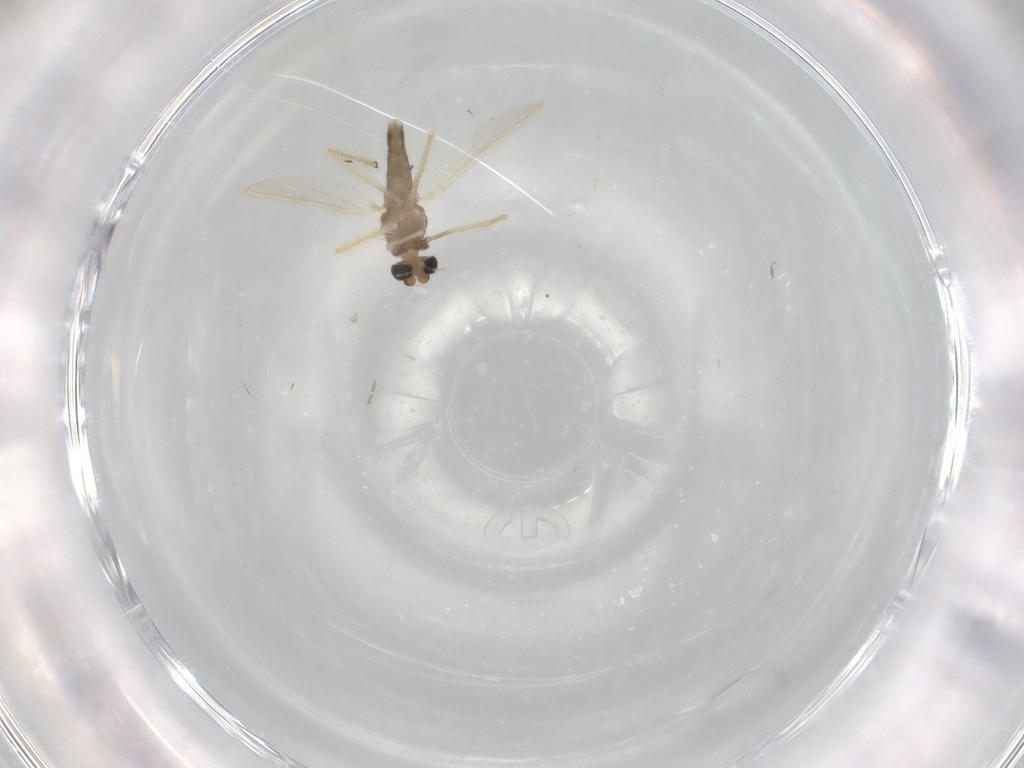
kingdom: Animalia
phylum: Arthropoda
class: Insecta
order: Diptera
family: Chironomidae
